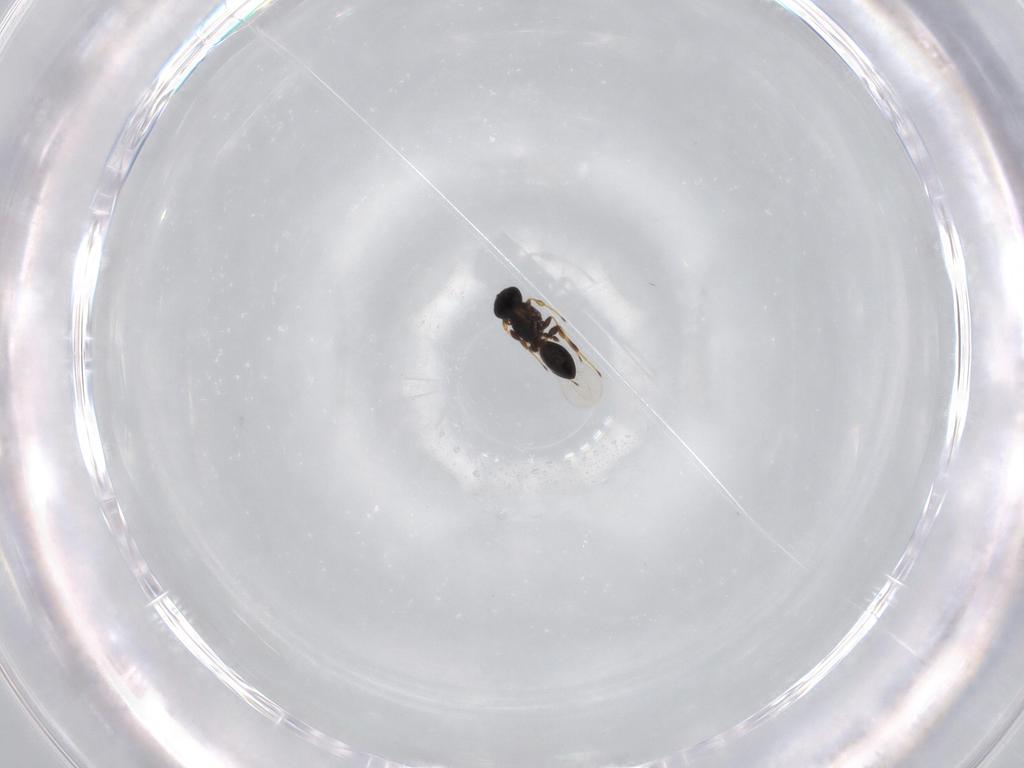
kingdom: Animalia
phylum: Arthropoda
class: Insecta
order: Hymenoptera
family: Platygastridae
